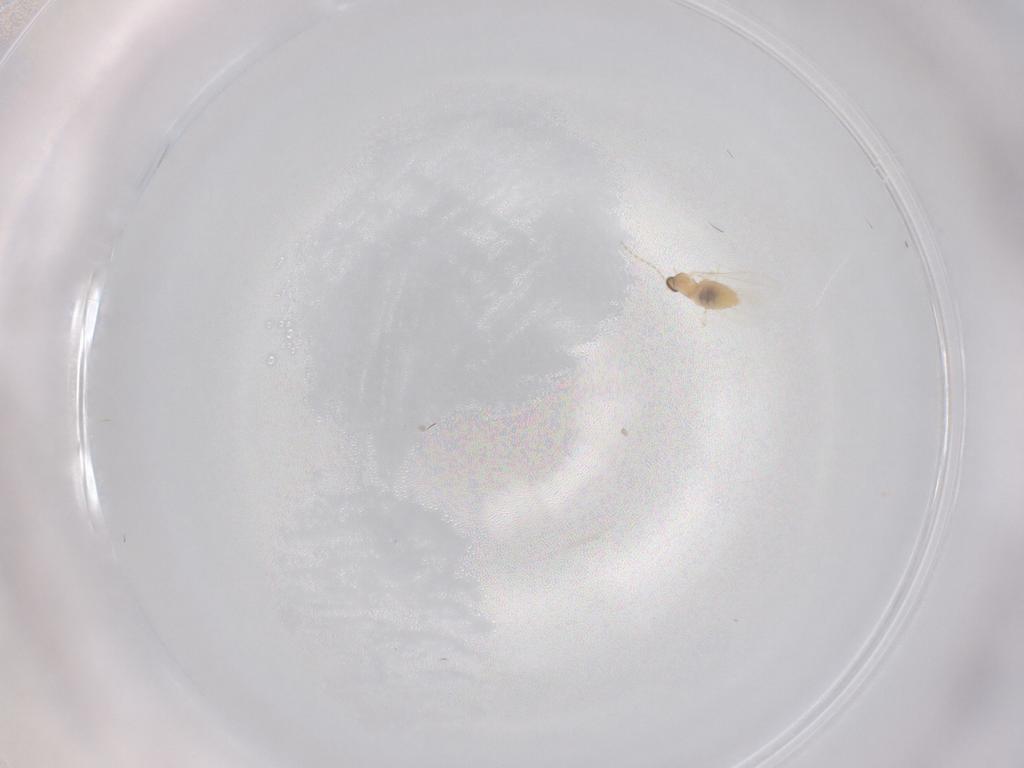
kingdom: Animalia
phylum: Arthropoda
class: Insecta
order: Diptera
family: Cecidomyiidae
